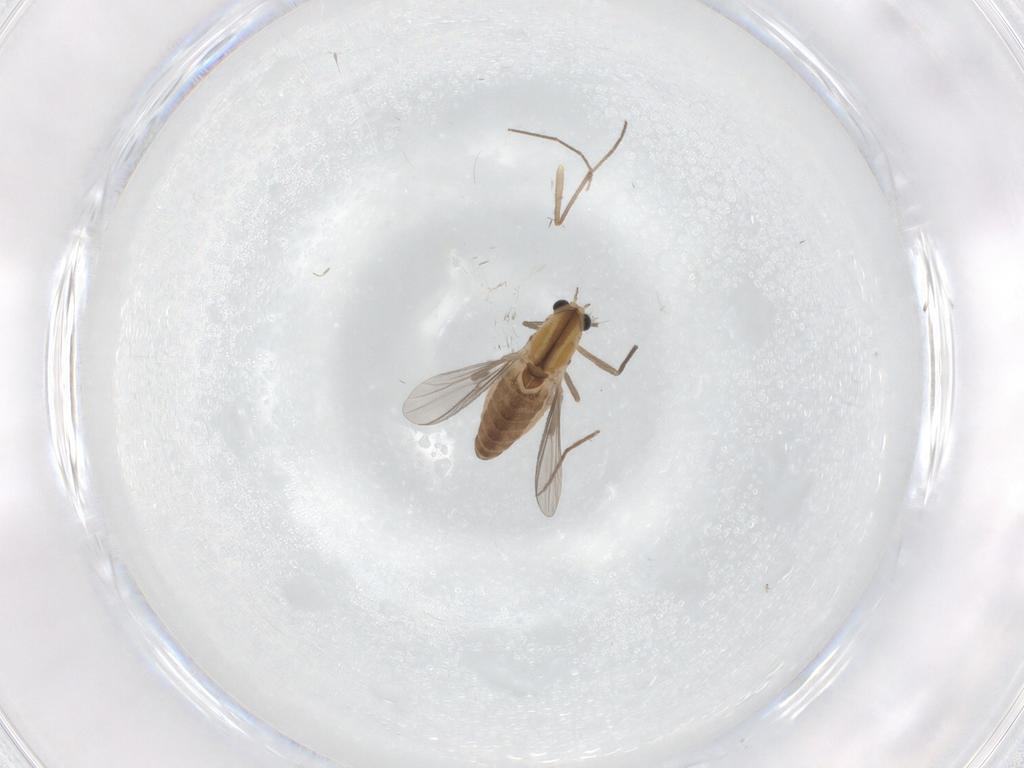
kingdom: Animalia
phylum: Arthropoda
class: Insecta
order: Diptera
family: Chironomidae
